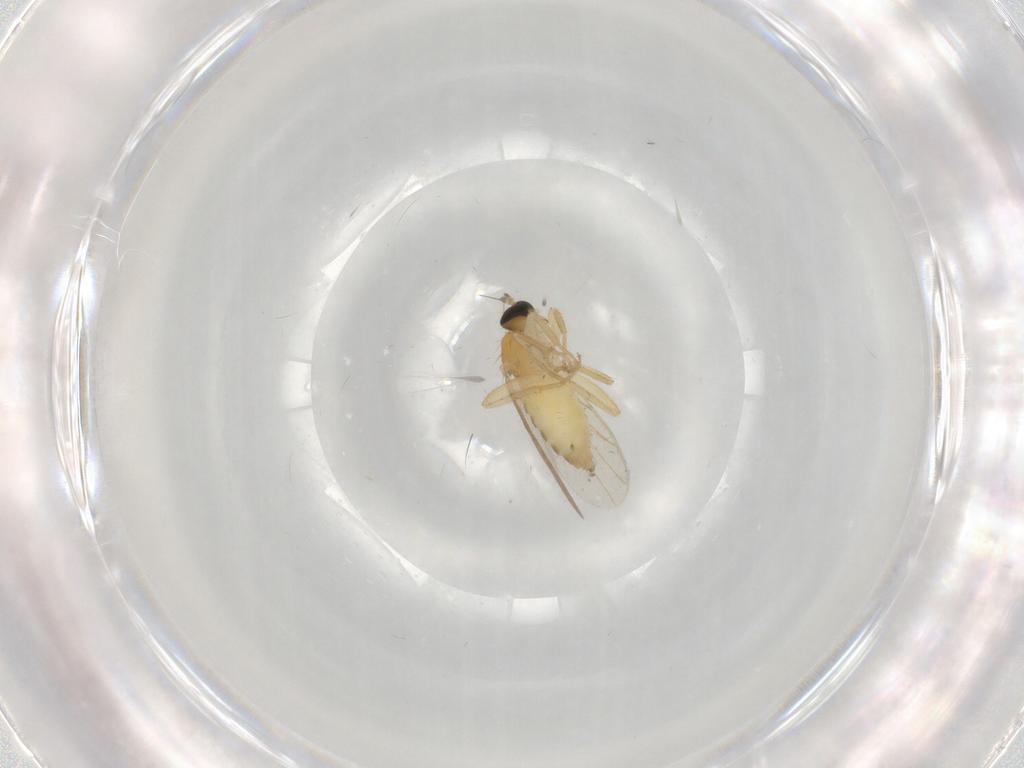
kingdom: Animalia
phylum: Arthropoda
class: Insecta
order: Diptera
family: Hybotidae
